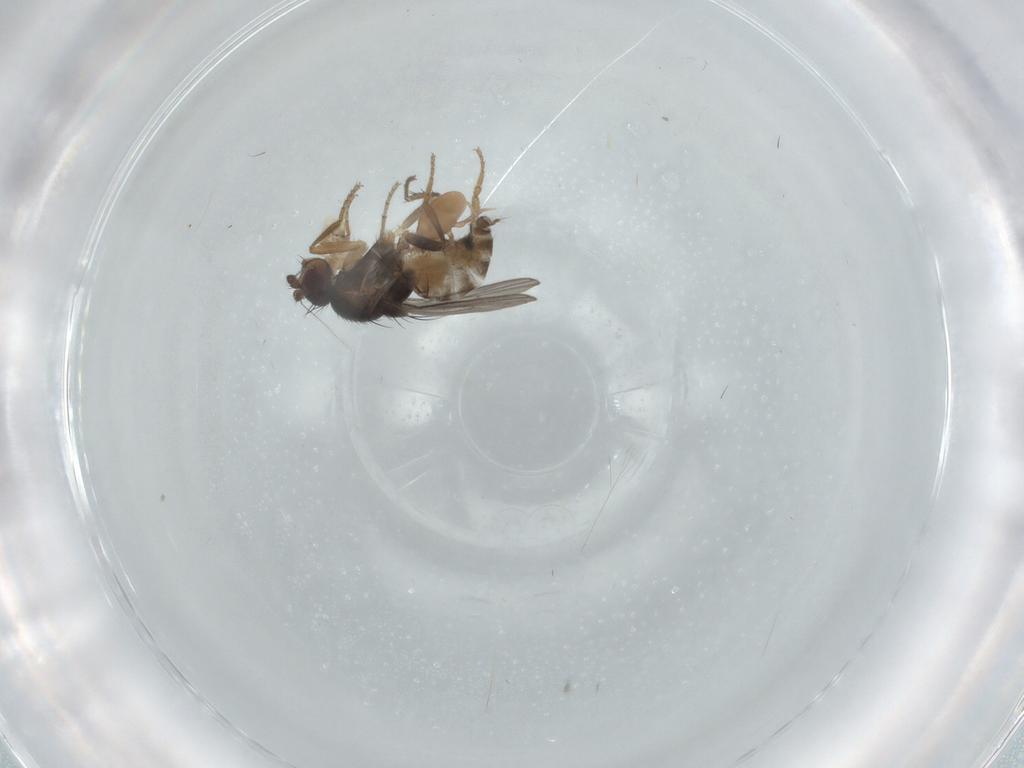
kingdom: Animalia
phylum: Arthropoda
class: Arachnida
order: Mesostigmata
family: Macrochelidae
